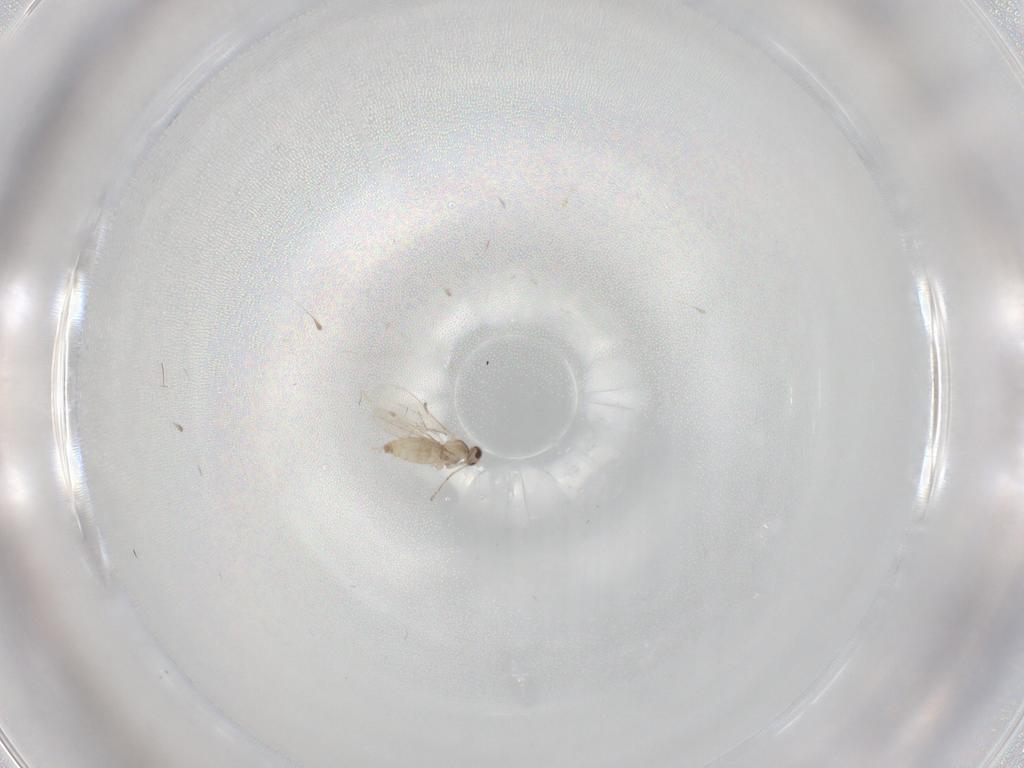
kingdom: Animalia
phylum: Arthropoda
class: Insecta
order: Diptera
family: Cecidomyiidae
